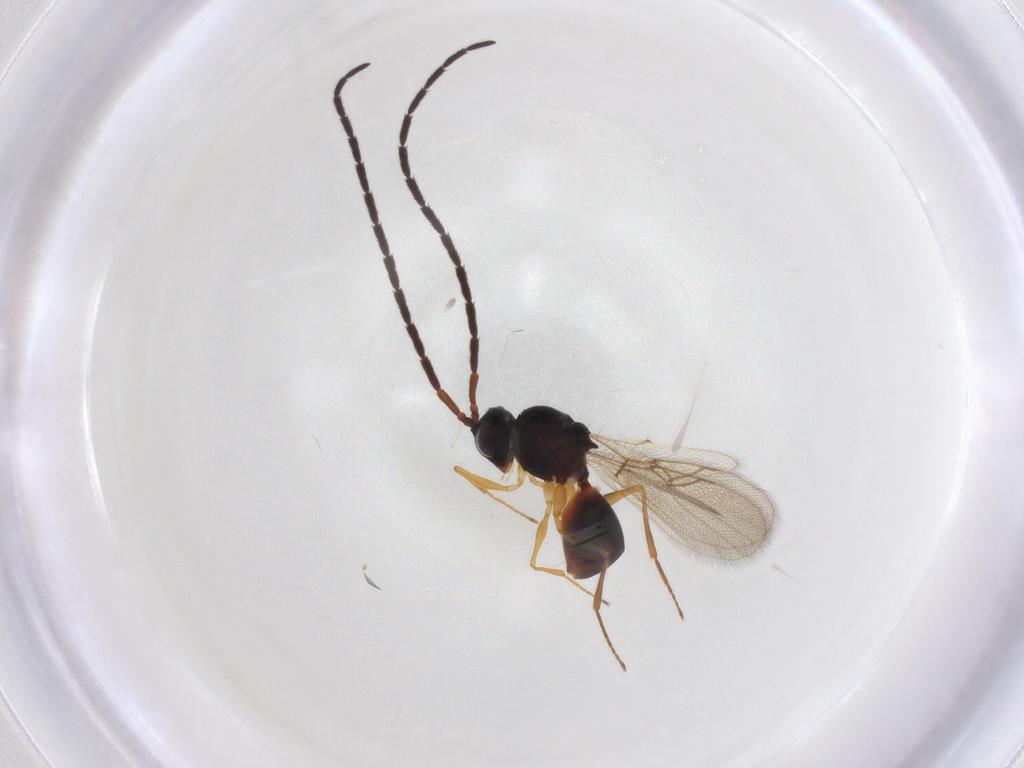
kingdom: Animalia
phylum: Arthropoda
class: Insecta
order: Hymenoptera
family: Figitidae
